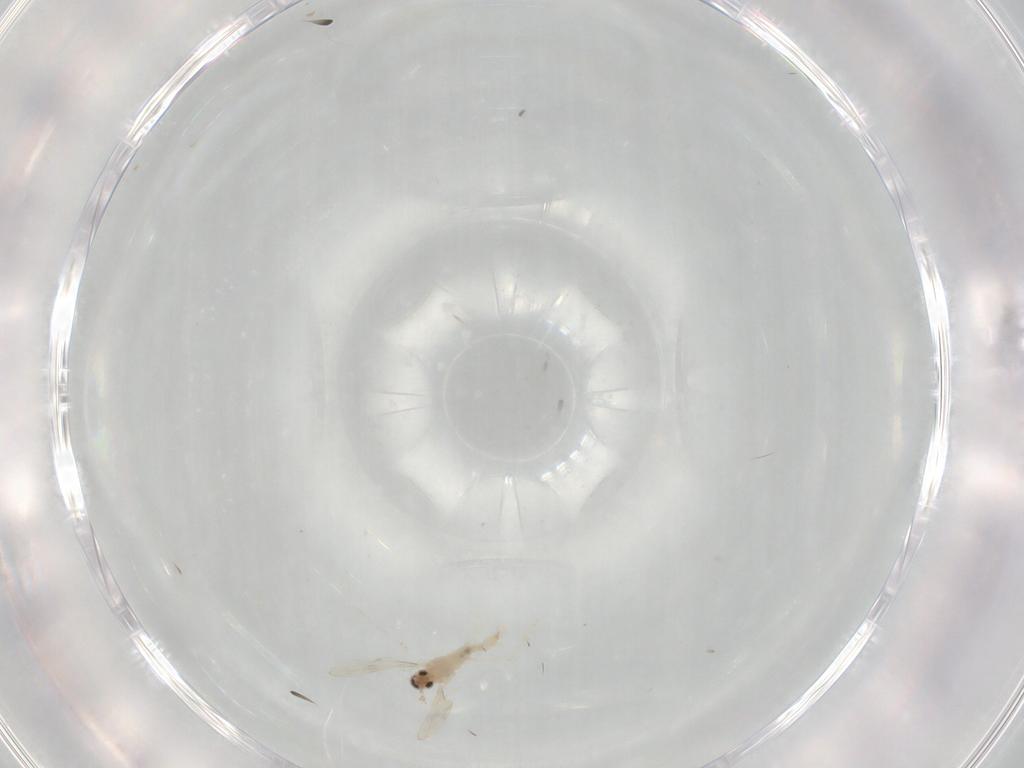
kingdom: Animalia
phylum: Arthropoda
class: Insecta
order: Diptera
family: Cecidomyiidae
